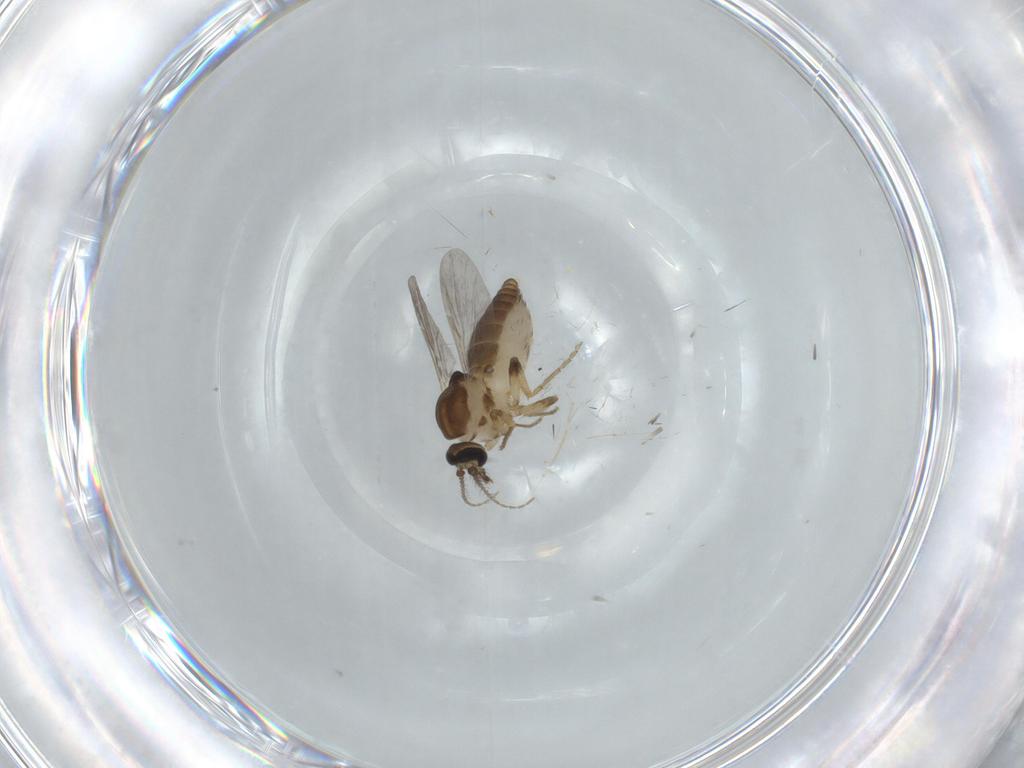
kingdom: Animalia
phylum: Arthropoda
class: Insecta
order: Diptera
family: Ceratopogonidae
